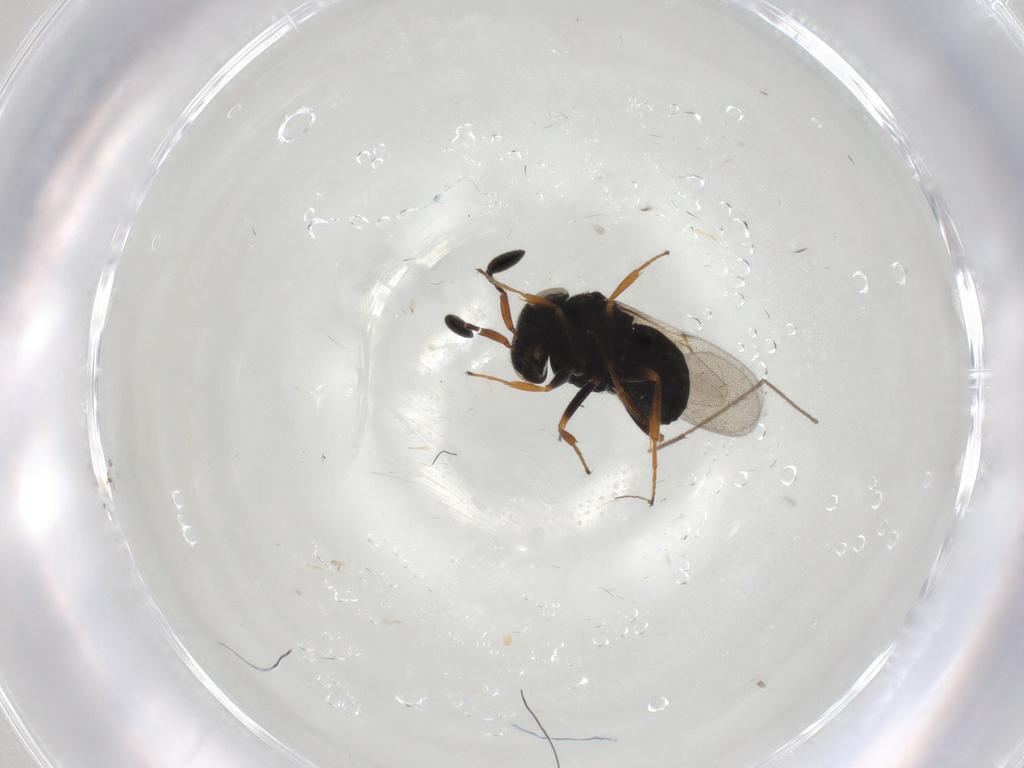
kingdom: Animalia
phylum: Arthropoda
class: Insecta
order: Hymenoptera
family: Scelionidae
